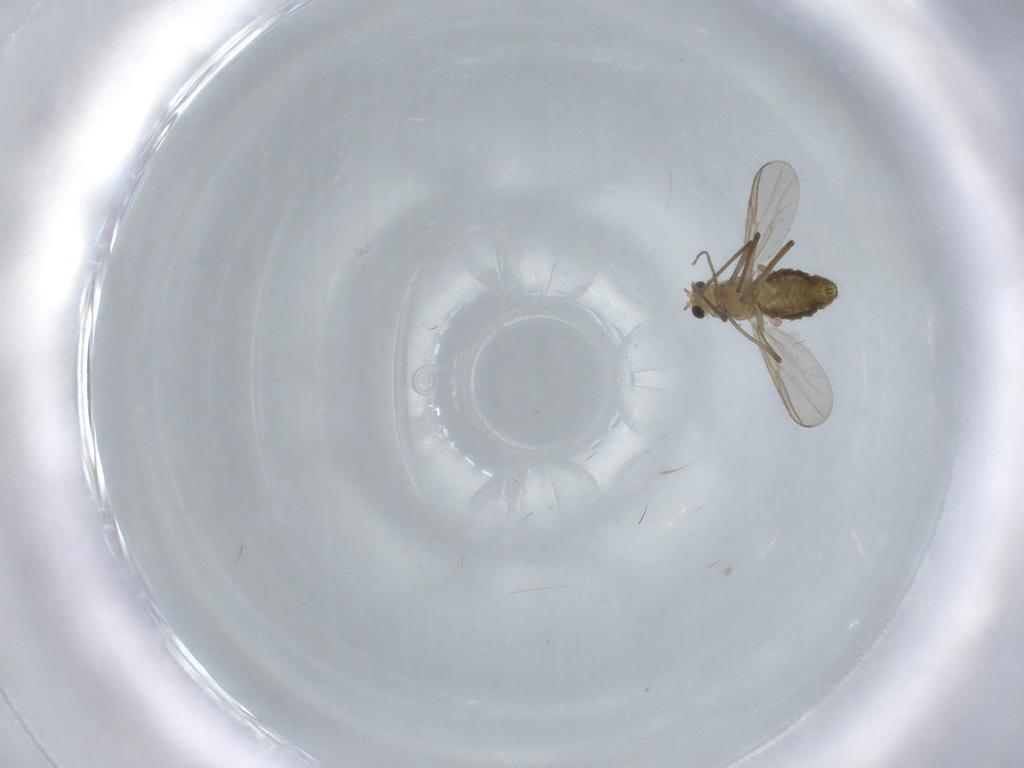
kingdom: Animalia
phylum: Arthropoda
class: Insecta
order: Diptera
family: Chironomidae
